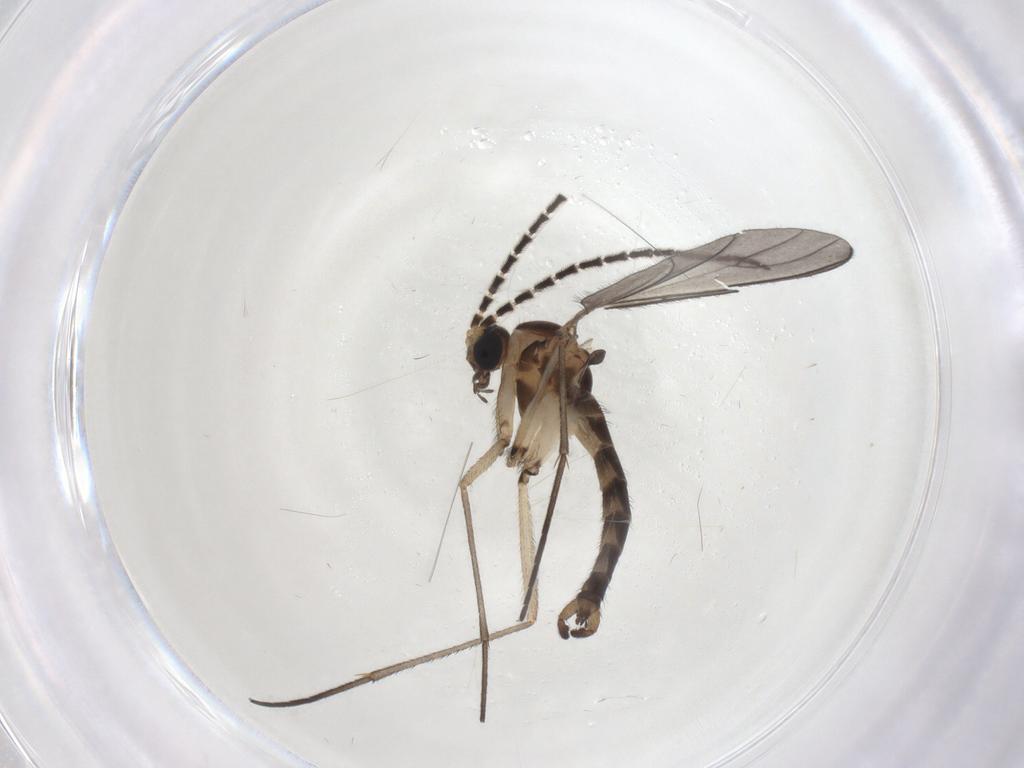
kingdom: Animalia
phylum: Arthropoda
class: Insecta
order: Diptera
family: Sciaridae
